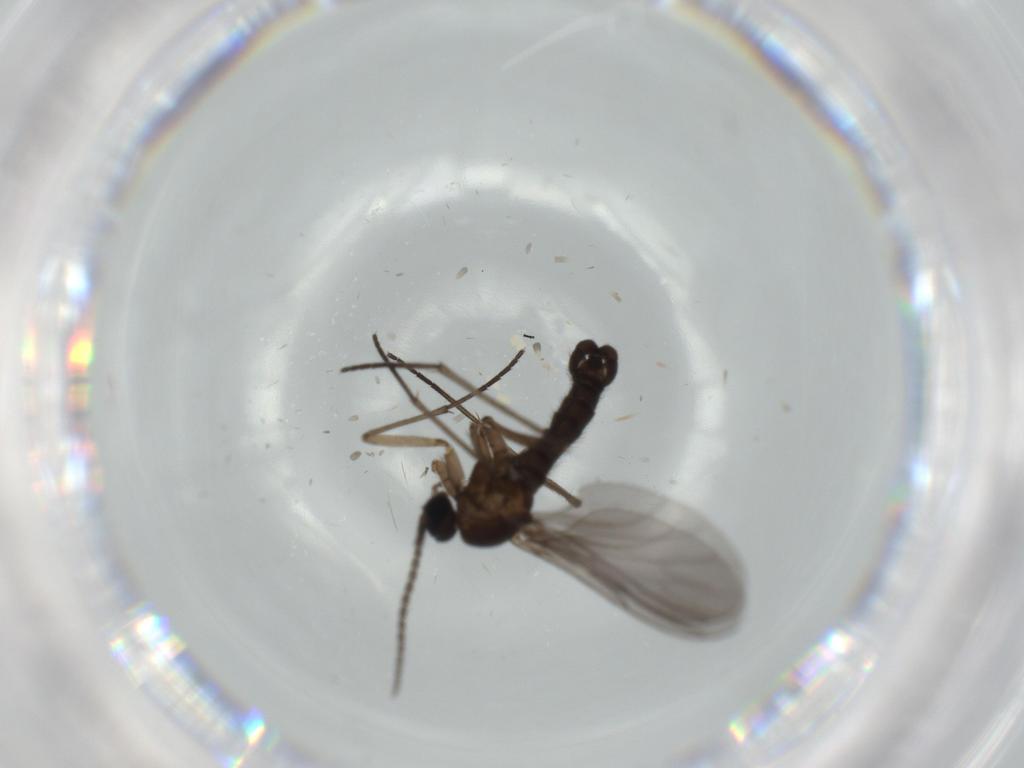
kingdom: Animalia
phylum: Arthropoda
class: Insecta
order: Diptera
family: Sciaridae
